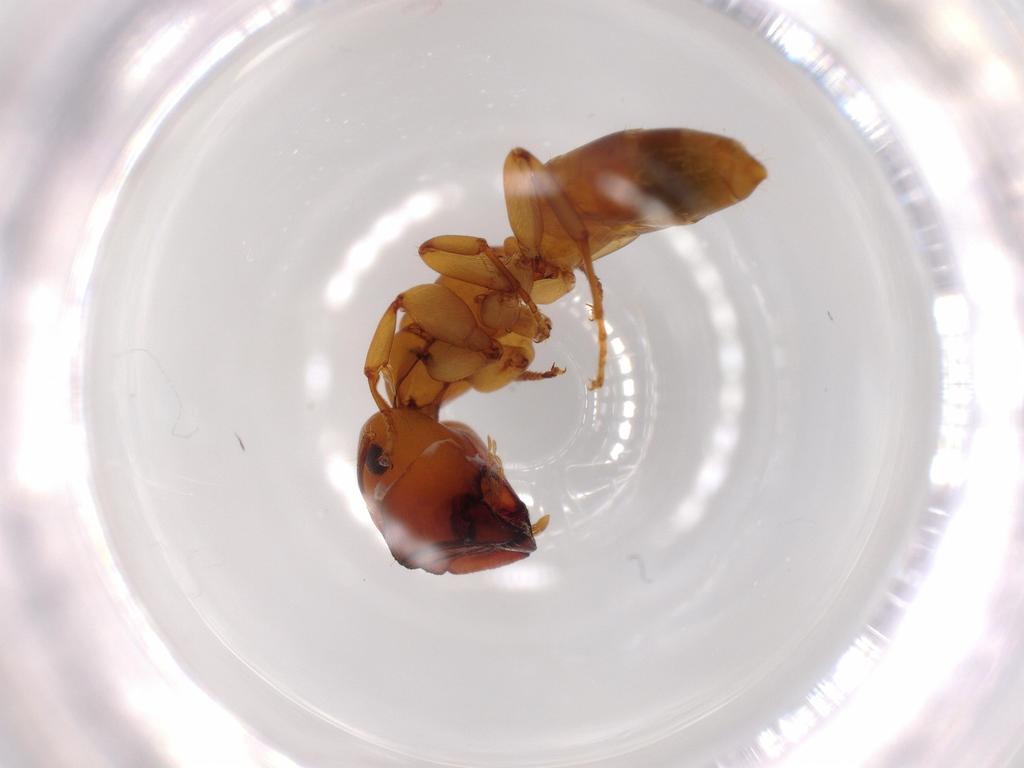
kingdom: Animalia
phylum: Arthropoda
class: Insecta
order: Hymenoptera
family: Formicidae
